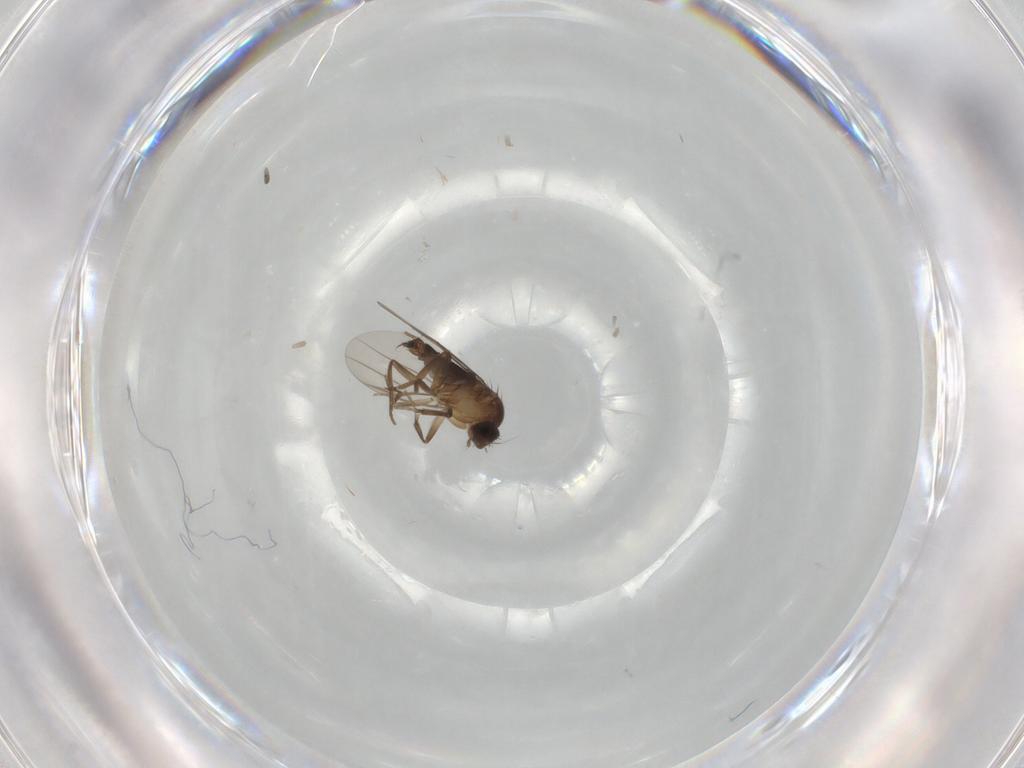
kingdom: Animalia
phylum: Arthropoda
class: Insecta
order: Diptera
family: Phoridae
